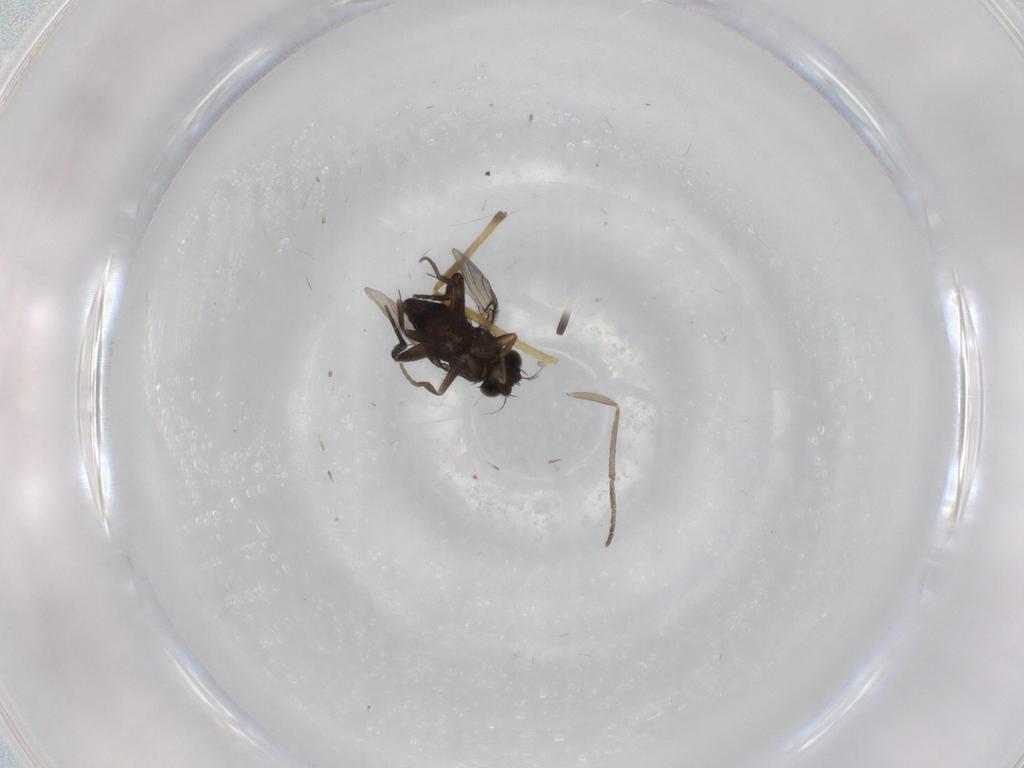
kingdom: Animalia
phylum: Arthropoda
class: Insecta
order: Diptera
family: Phoridae
